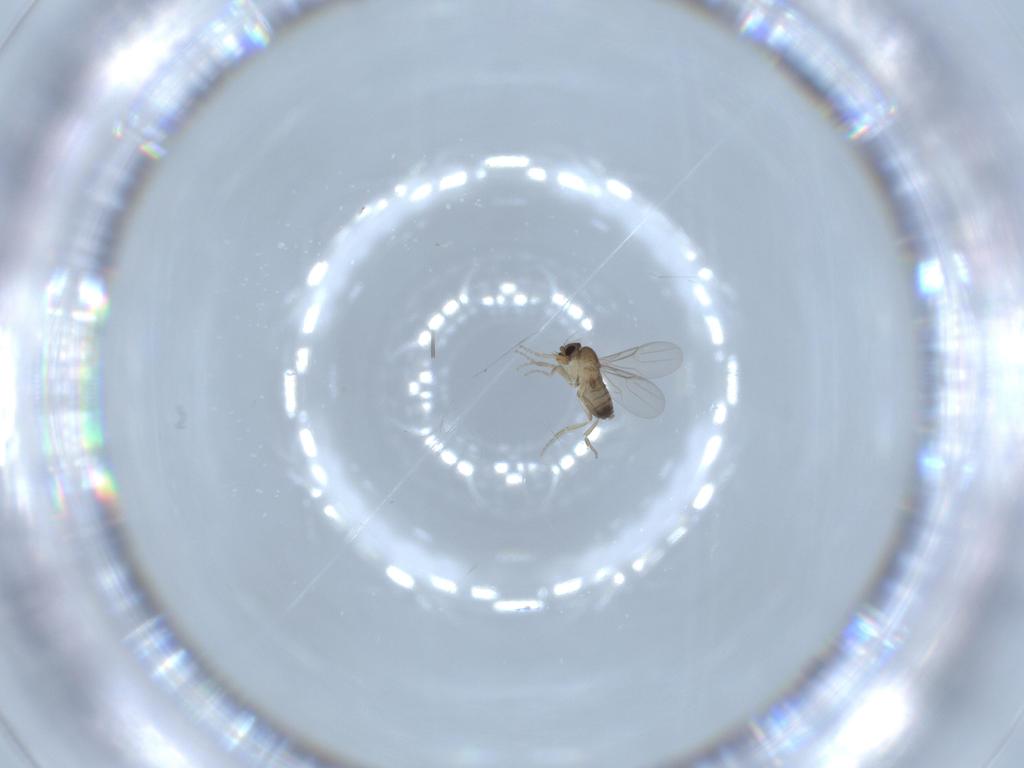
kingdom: Animalia
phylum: Arthropoda
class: Insecta
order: Diptera
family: Phoridae
